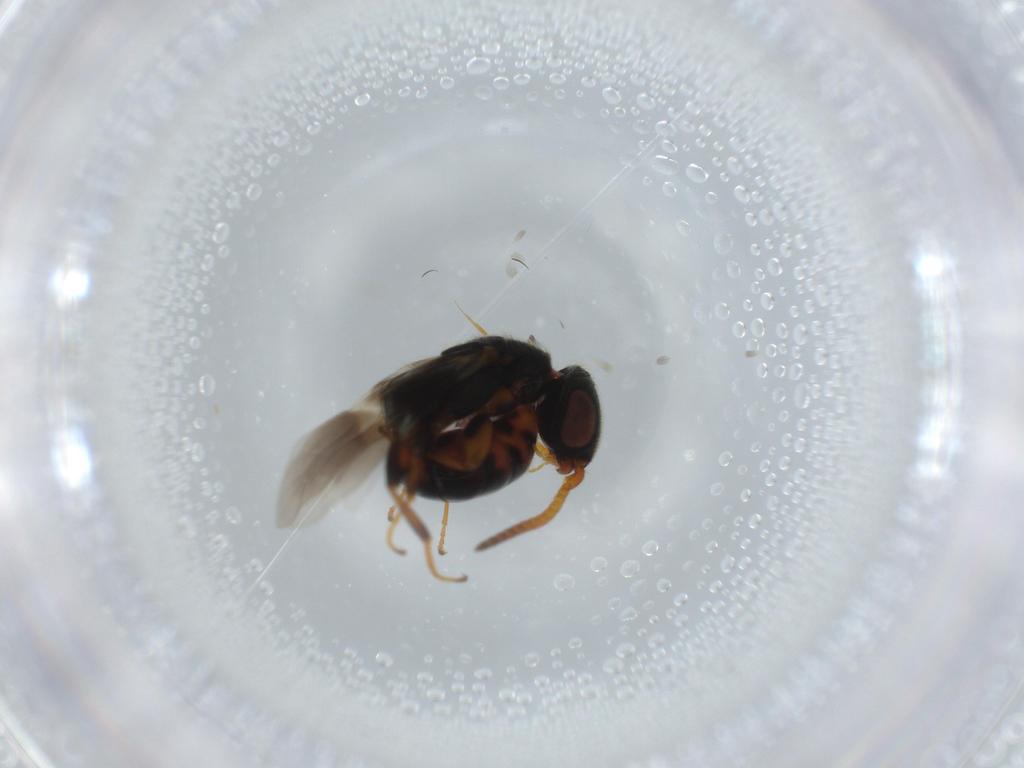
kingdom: Animalia
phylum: Arthropoda
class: Insecta
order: Hymenoptera
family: Bethylidae
